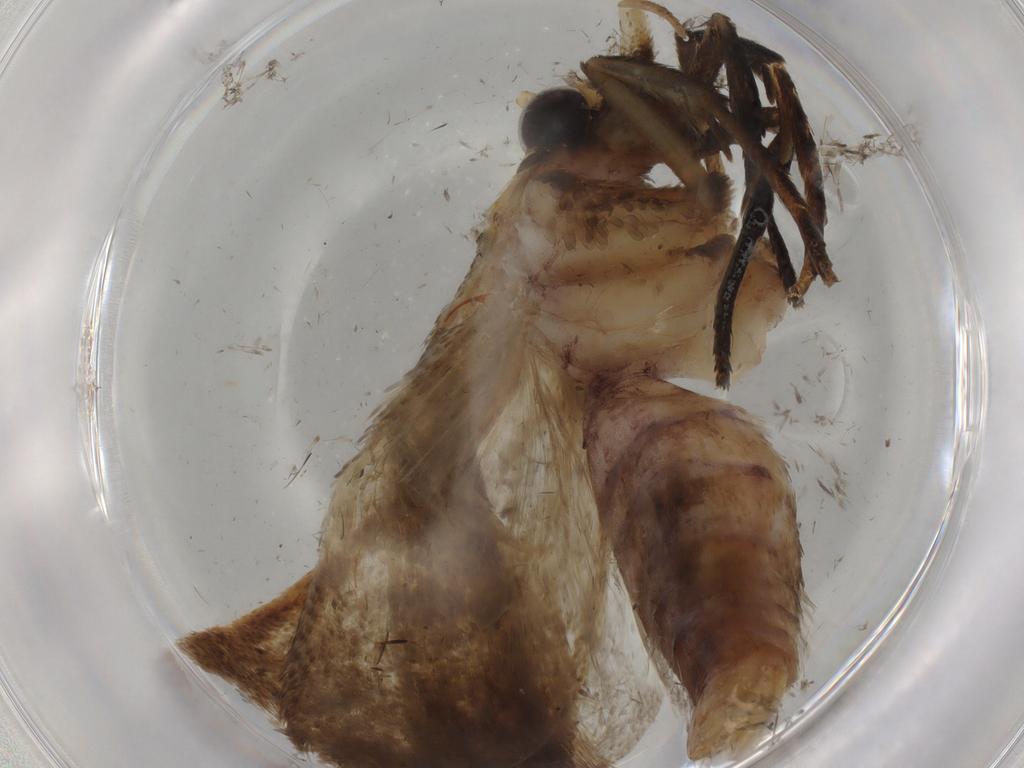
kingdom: Animalia
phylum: Arthropoda
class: Insecta
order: Lepidoptera
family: Oecophoridae
